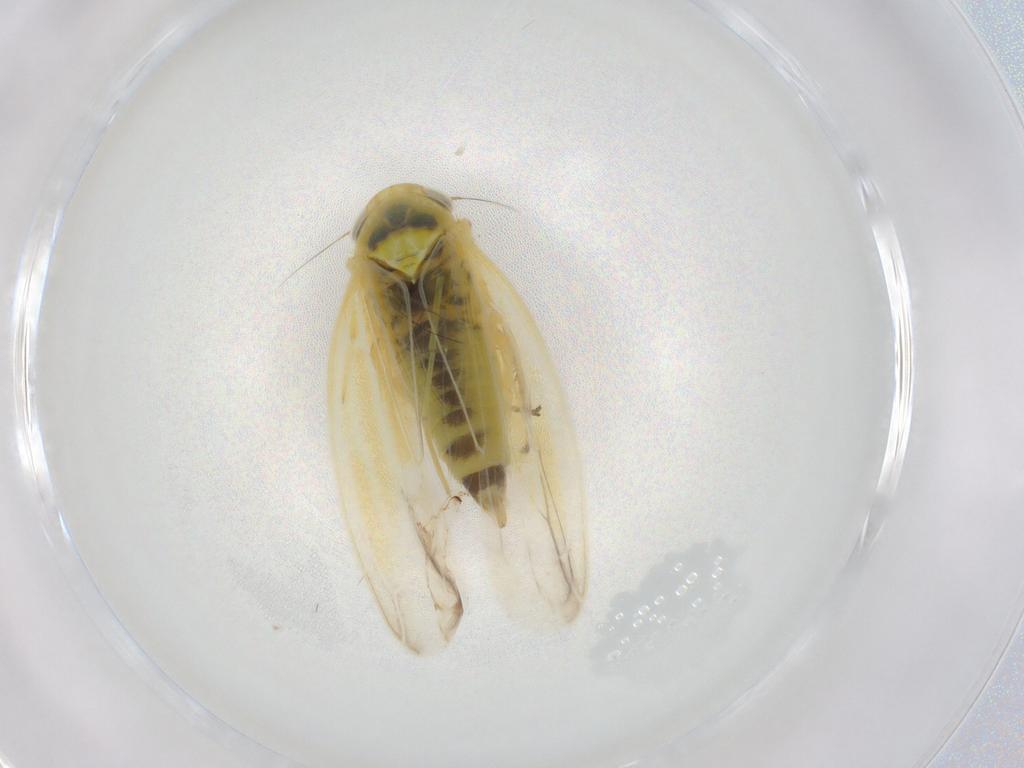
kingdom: Animalia
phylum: Arthropoda
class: Insecta
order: Hemiptera
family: Cicadellidae
